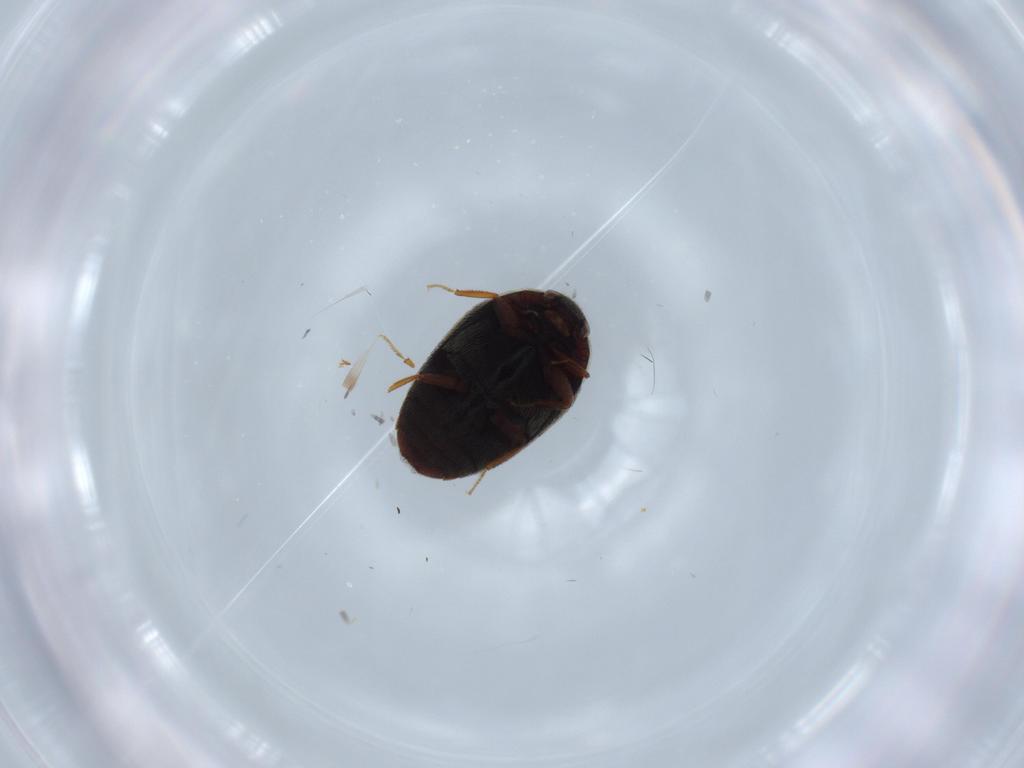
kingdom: Animalia
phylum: Arthropoda
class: Insecta
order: Coleoptera
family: Dermestidae
